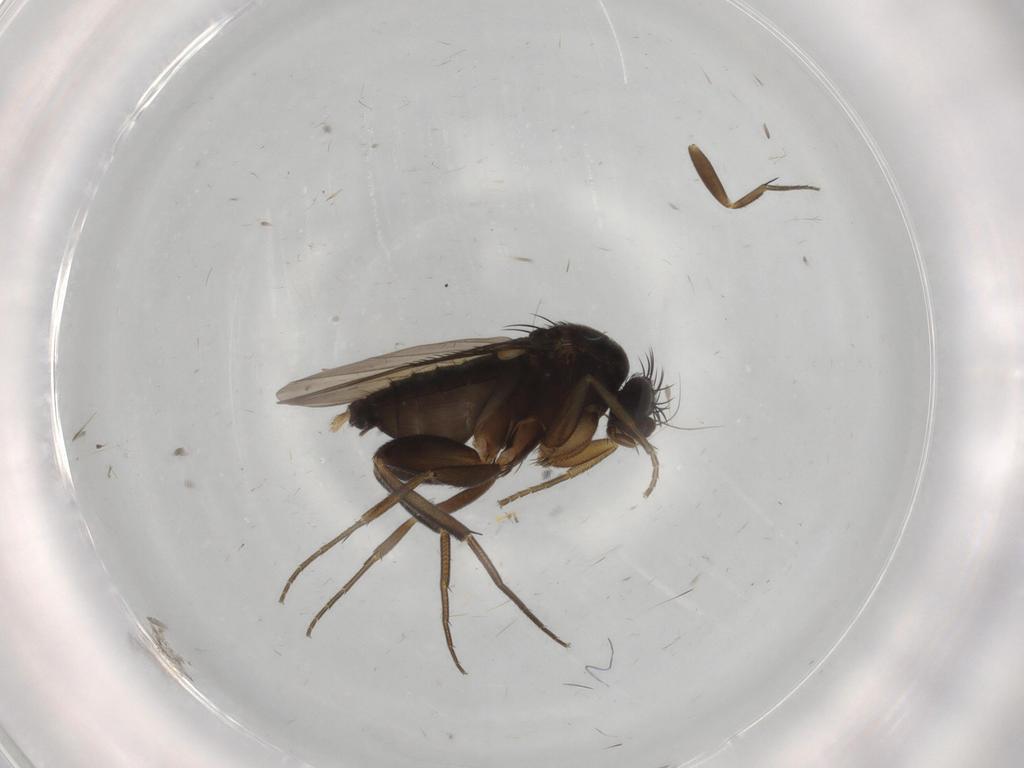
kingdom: Animalia
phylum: Arthropoda
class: Insecta
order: Diptera
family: Phoridae
